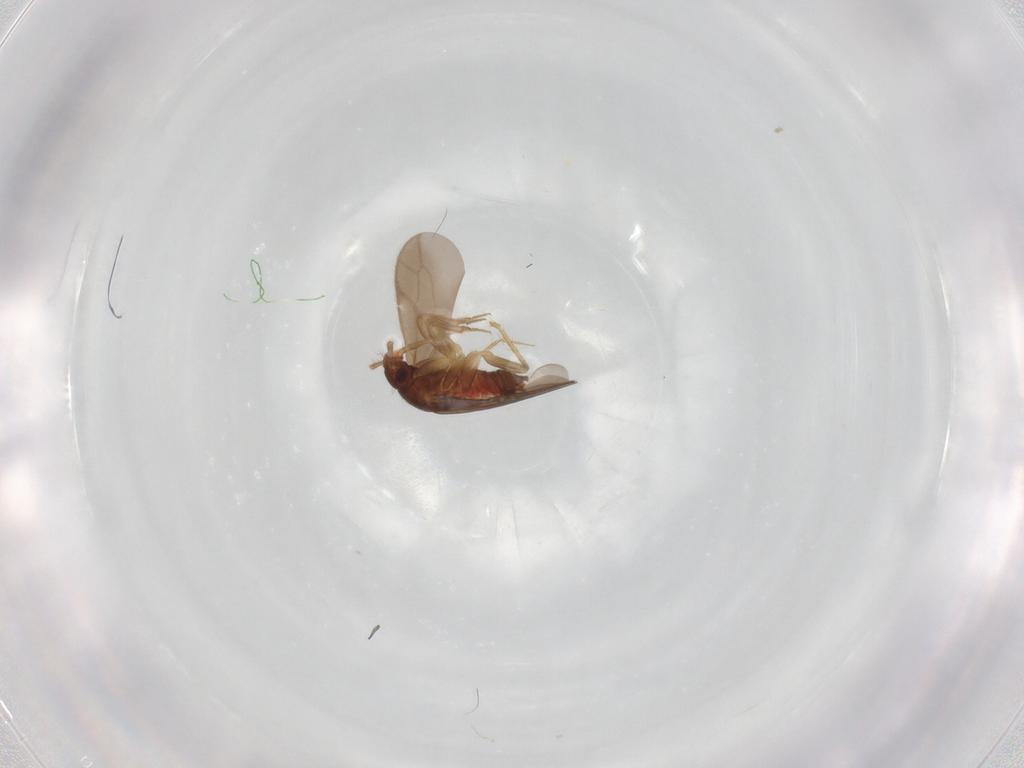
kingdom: Animalia
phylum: Arthropoda
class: Insecta
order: Hemiptera
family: Ceratocombidae
